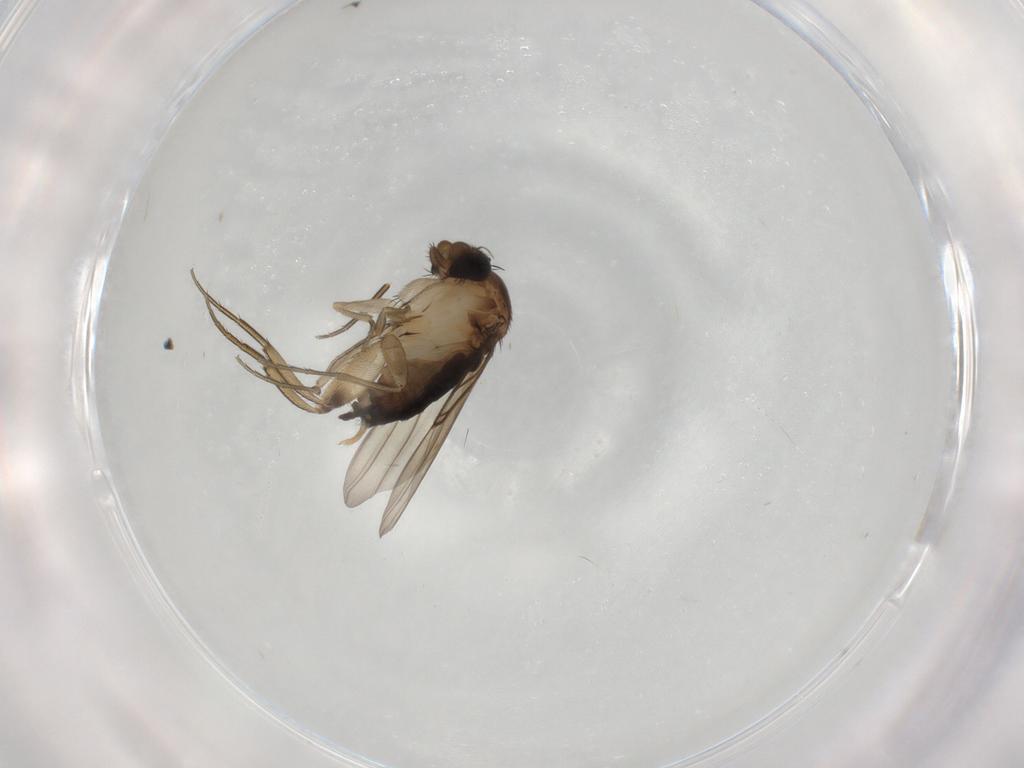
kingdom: Animalia
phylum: Arthropoda
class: Insecta
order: Diptera
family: Phoridae
